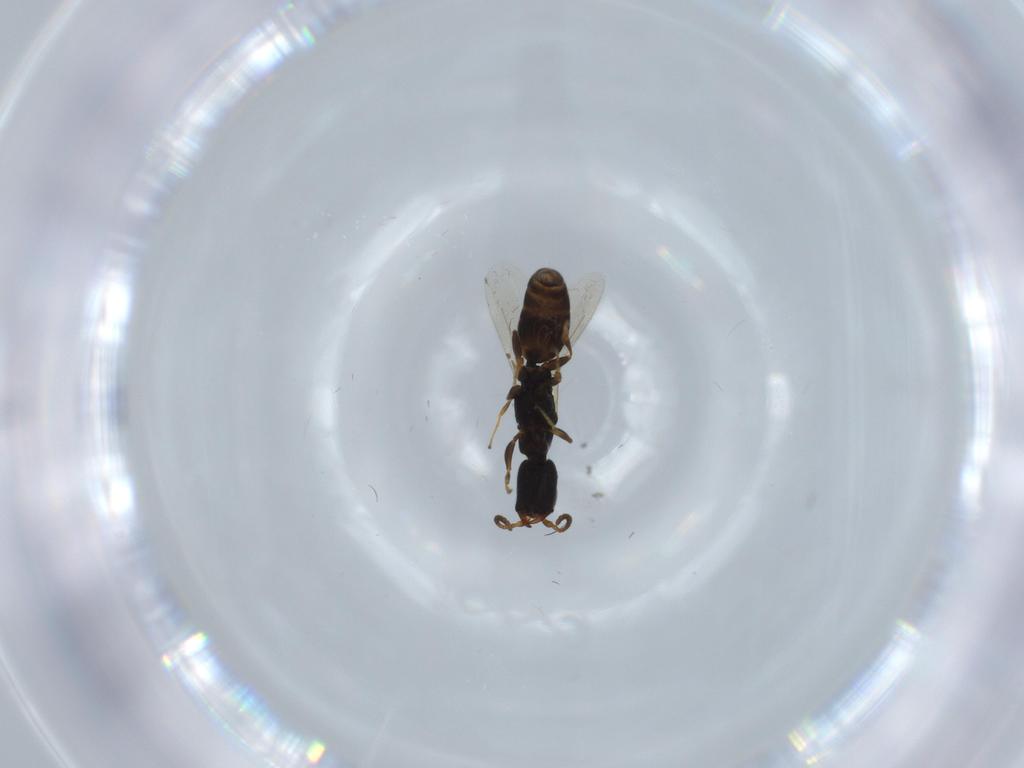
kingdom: Animalia
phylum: Arthropoda
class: Insecta
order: Hymenoptera
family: Bethylidae
